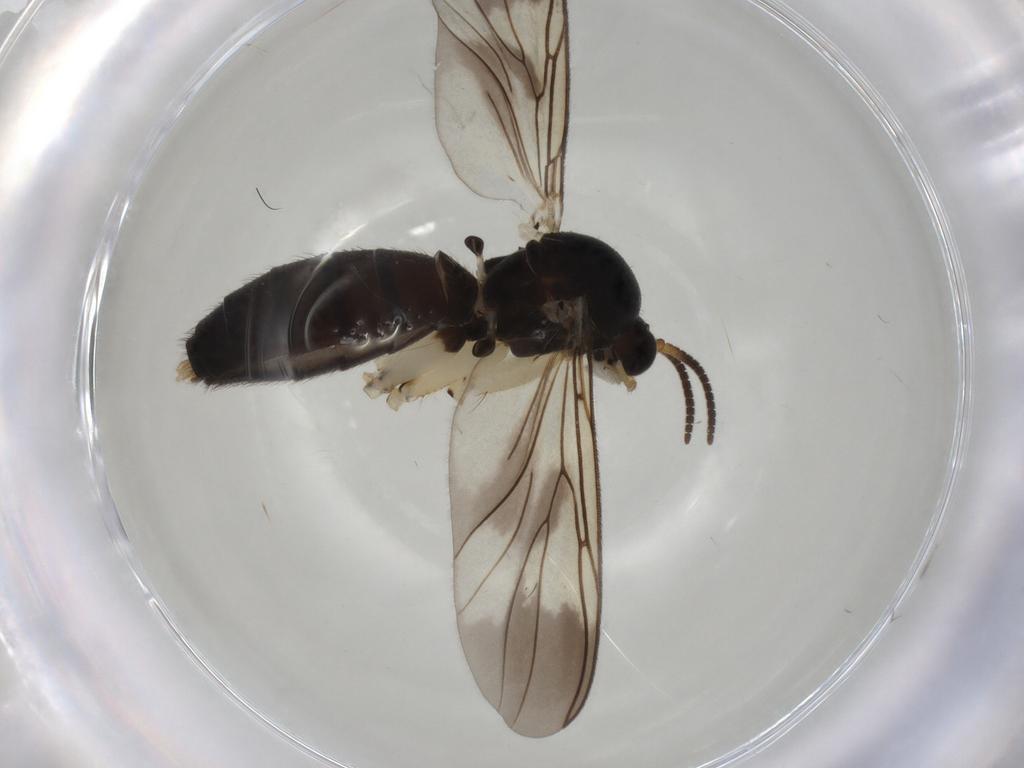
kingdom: Animalia
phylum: Arthropoda
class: Insecta
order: Diptera
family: Mycetophilidae
